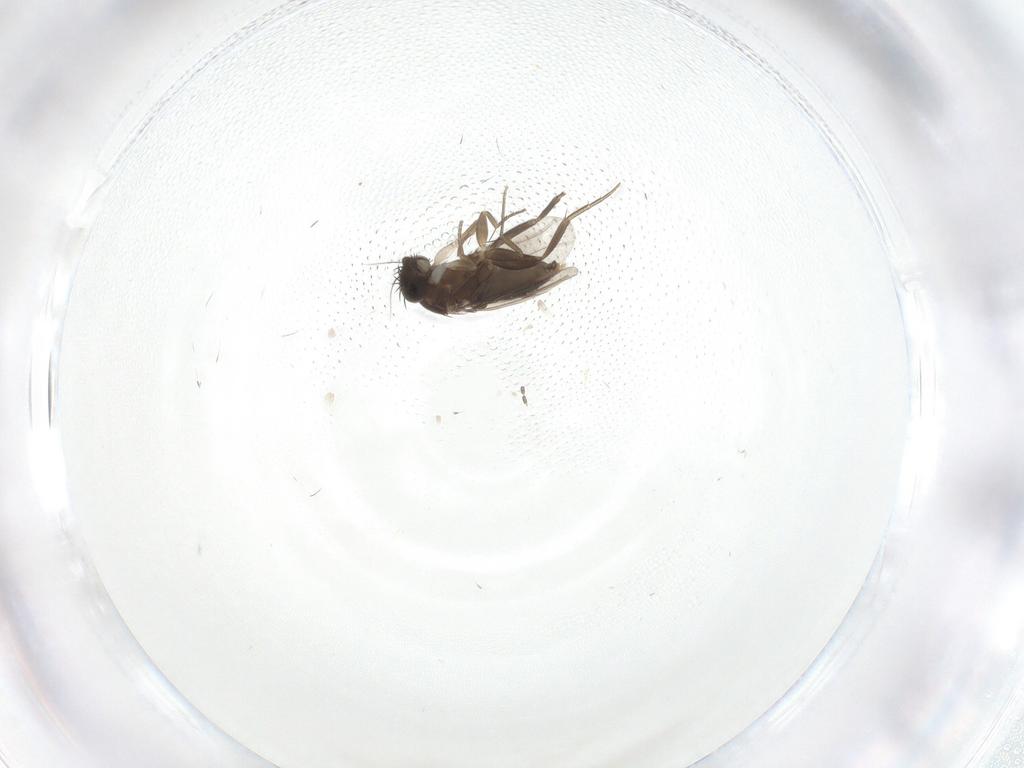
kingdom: Animalia
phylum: Arthropoda
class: Insecta
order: Diptera
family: Phoridae
